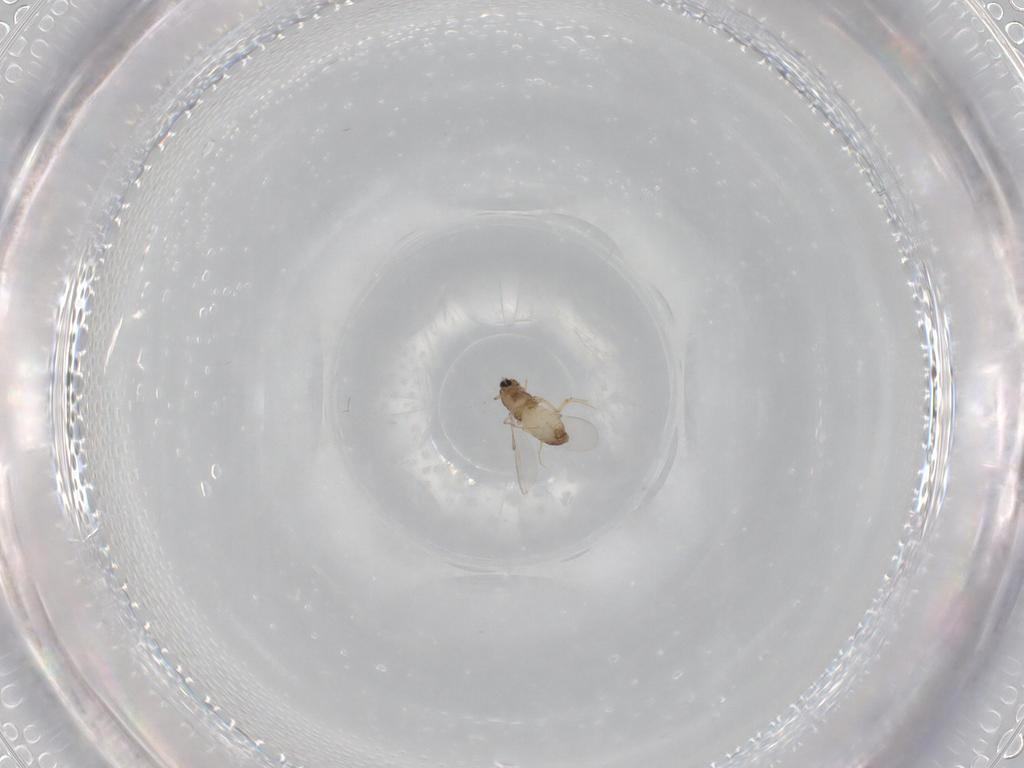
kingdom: Animalia
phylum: Arthropoda
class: Insecta
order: Diptera
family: Chironomidae
